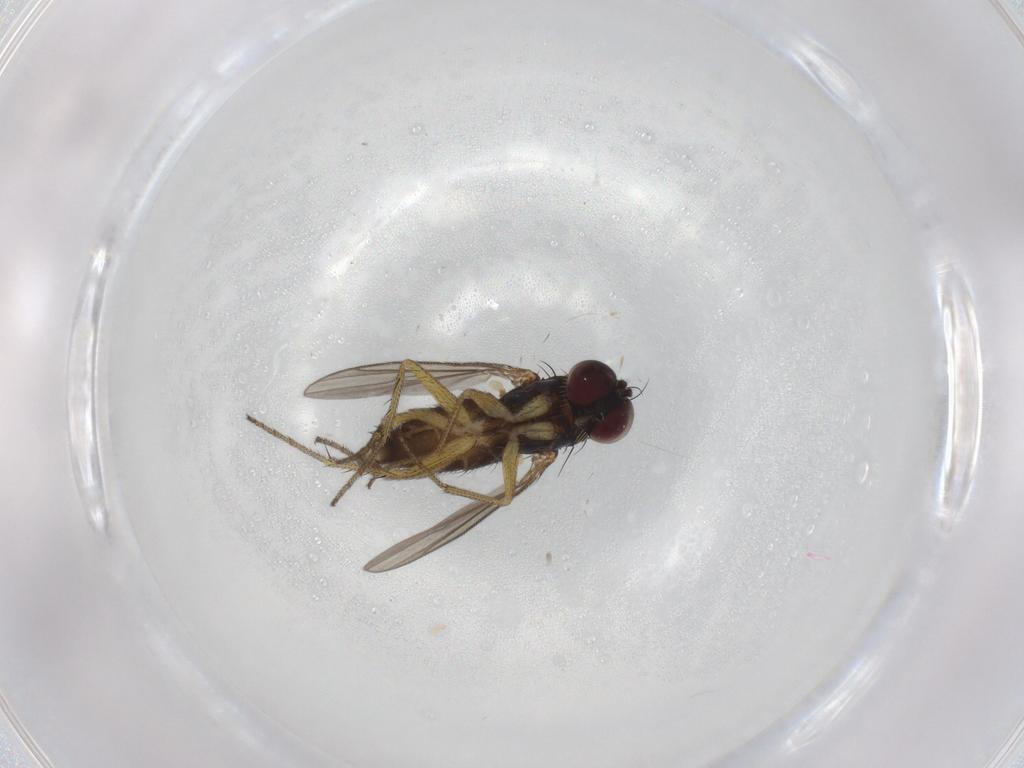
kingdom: Animalia
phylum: Arthropoda
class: Insecta
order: Diptera
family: Dolichopodidae
